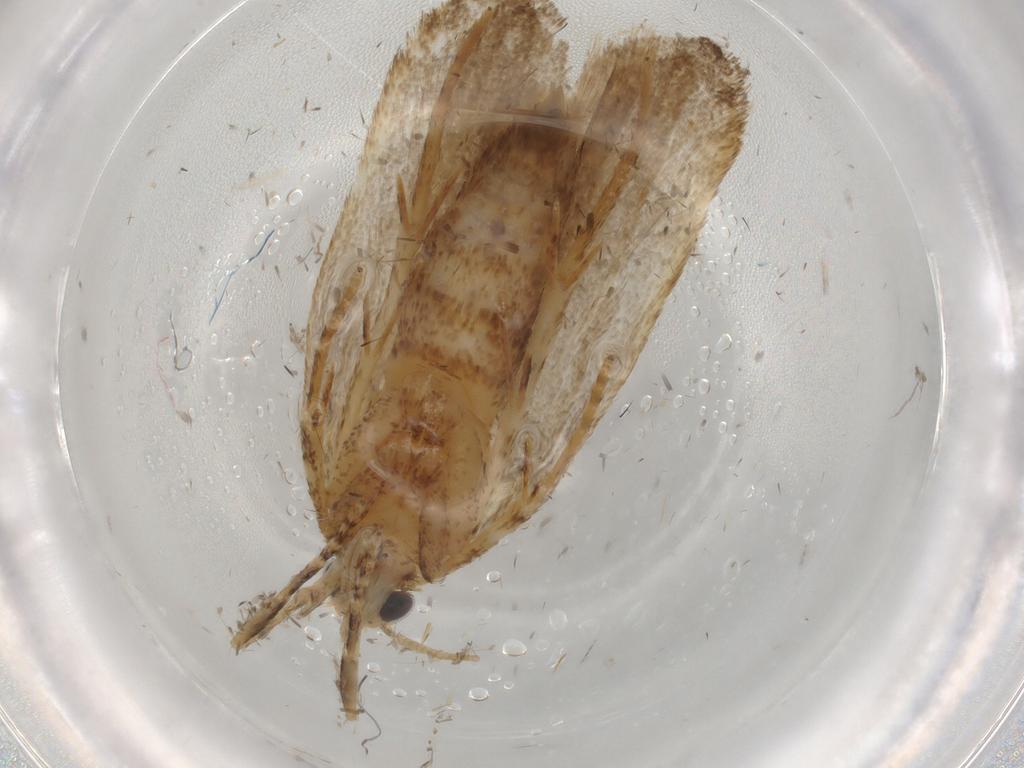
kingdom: Animalia
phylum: Arthropoda
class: Insecta
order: Lepidoptera
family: Autostichidae
